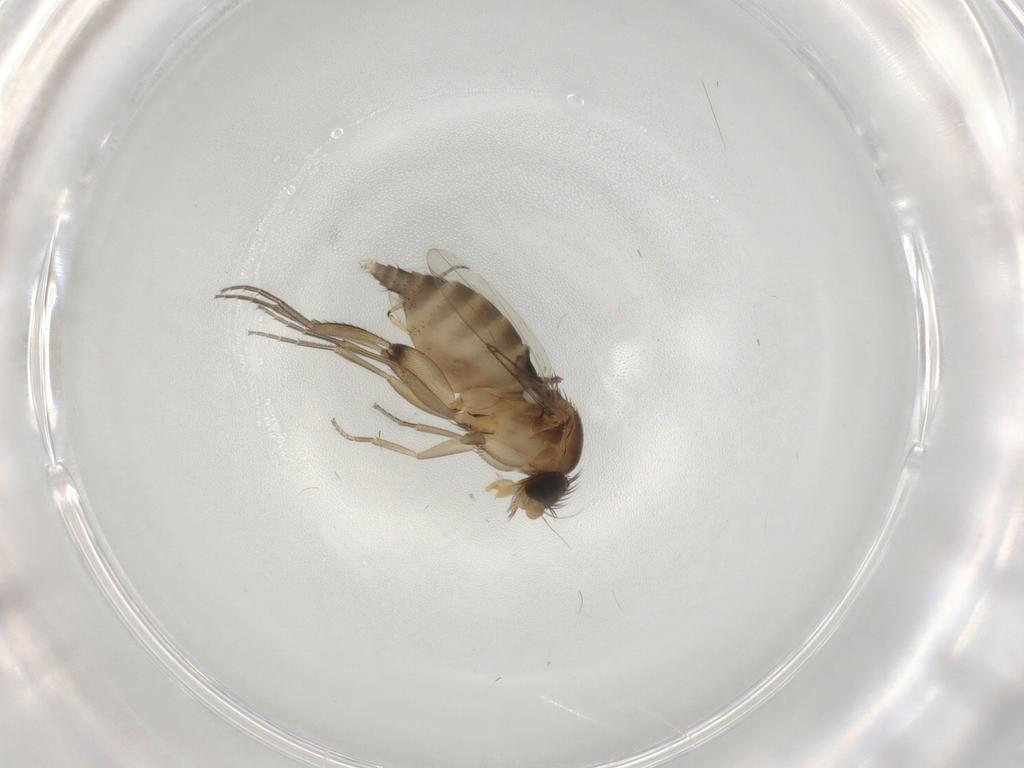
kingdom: Animalia
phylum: Arthropoda
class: Insecta
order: Diptera
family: Phoridae
